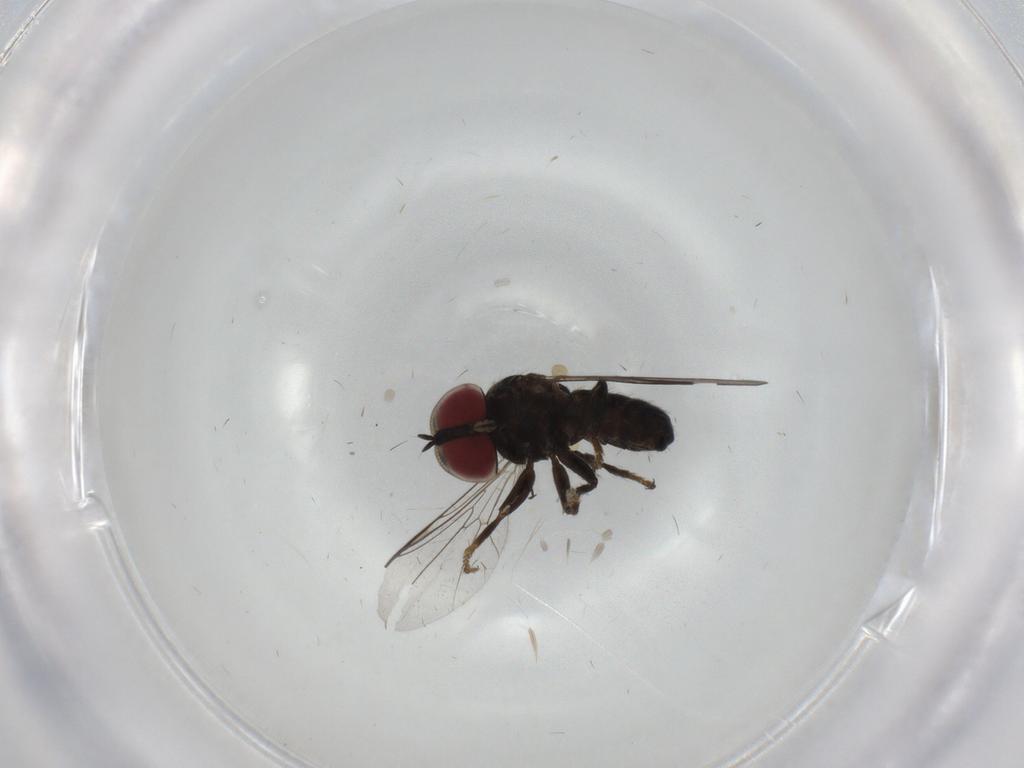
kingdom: Animalia
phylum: Arthropoda
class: Insecta
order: Diptera
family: Pipunculidae
